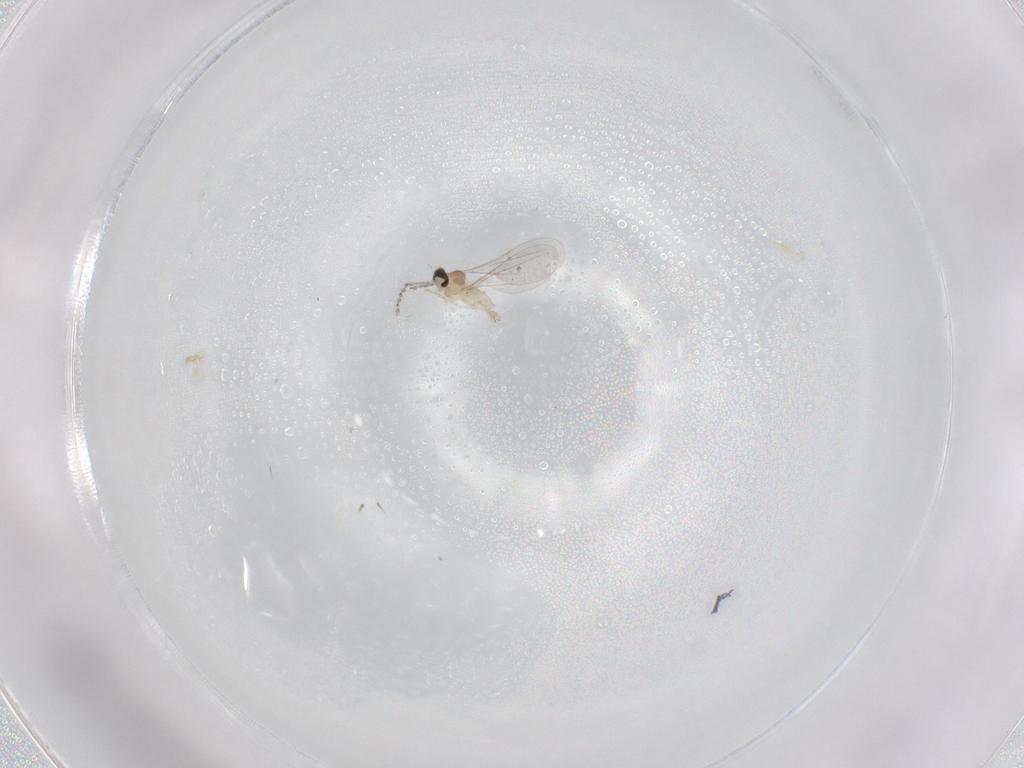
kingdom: Animalia
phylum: Arthropoda
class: Insecta
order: Diptera
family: Cecidomyiidae
